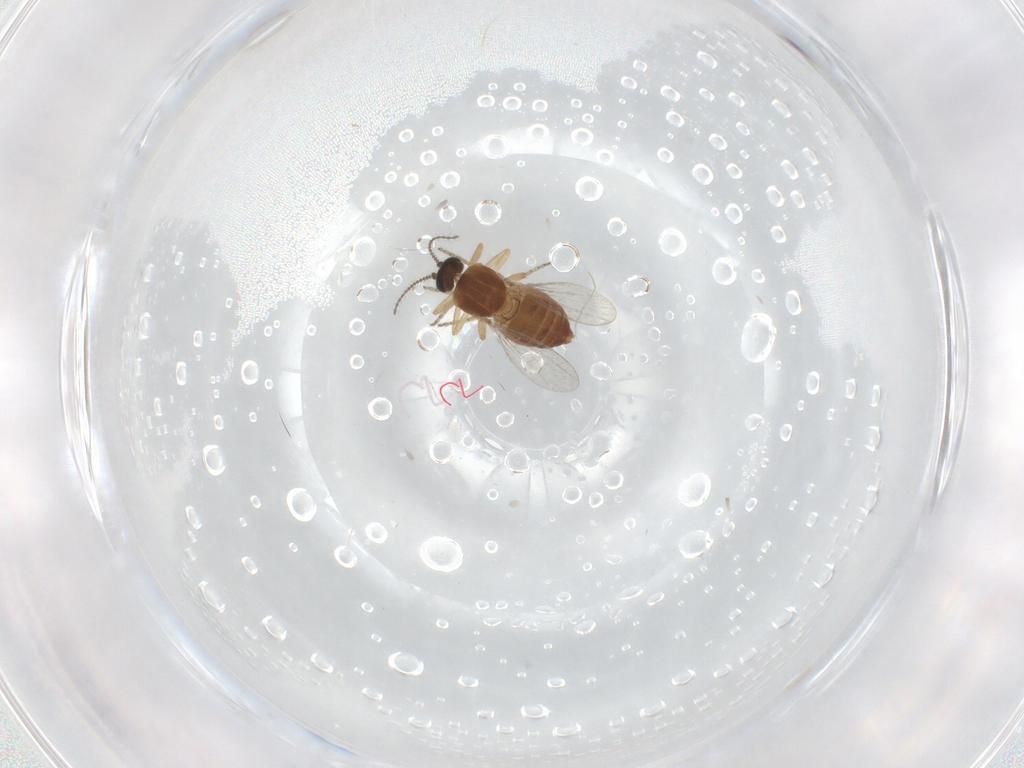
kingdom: Animalia
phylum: Arthropoda
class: Insecta
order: Diptera
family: Ceratopogonidae
